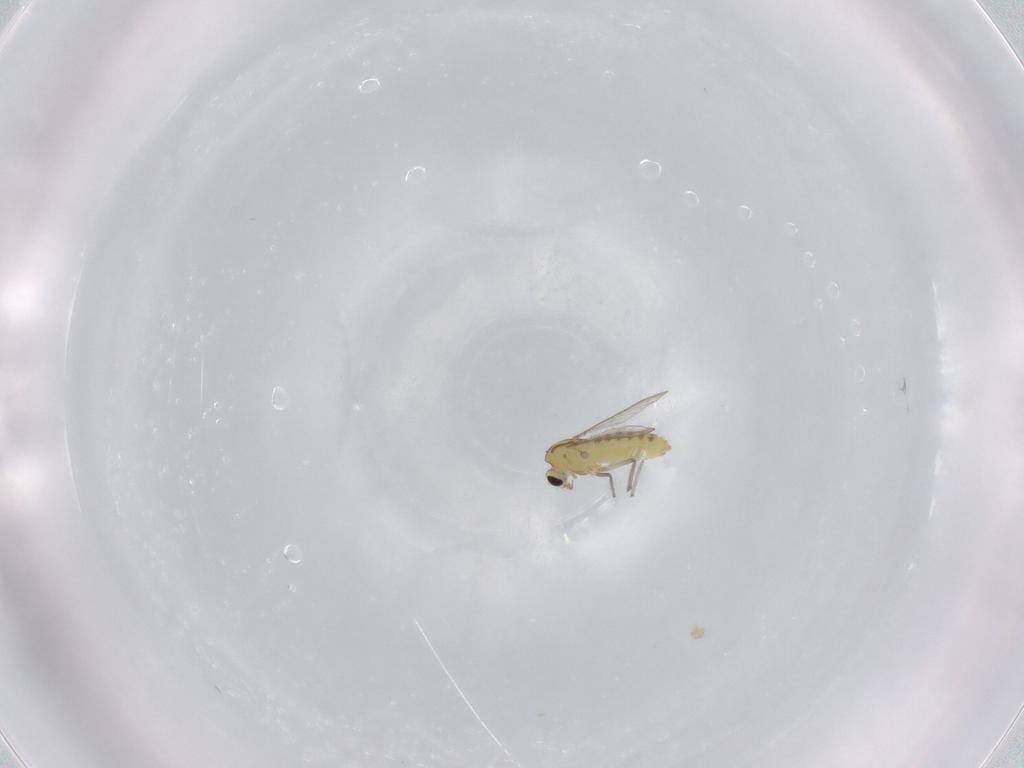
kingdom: Animalia
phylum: Arthropoda
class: Insecta
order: Diptera
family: Chironomidae
